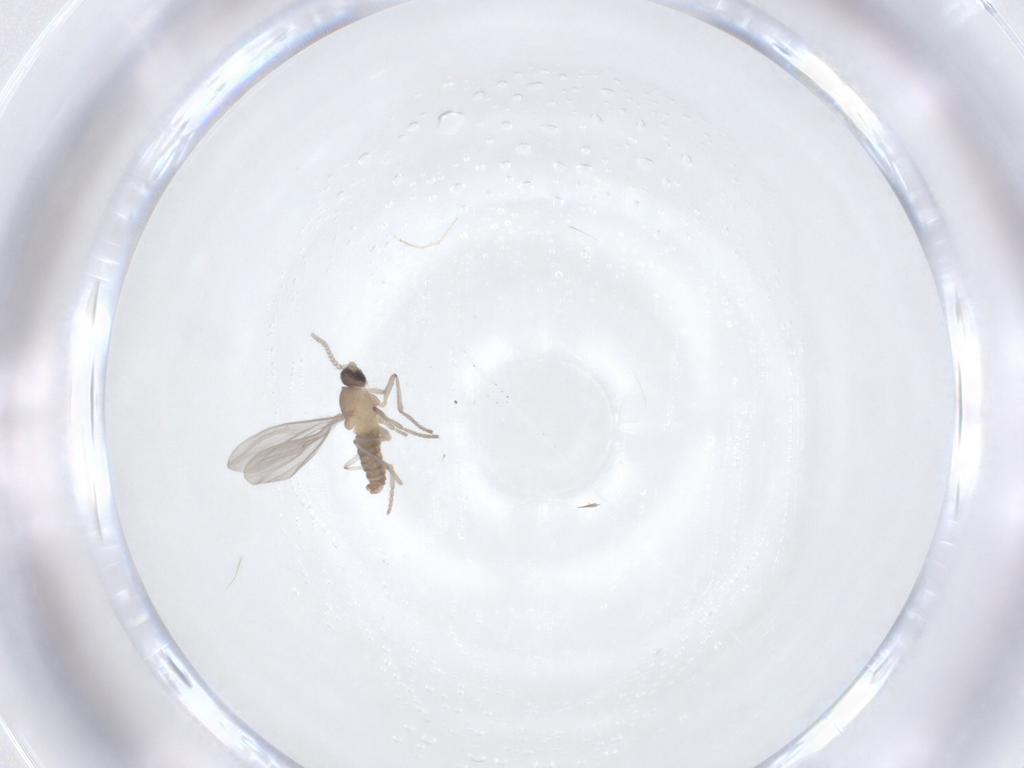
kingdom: Animalia
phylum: Arthropoda
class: Insecta
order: Diptera
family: Cecidomyiidae
